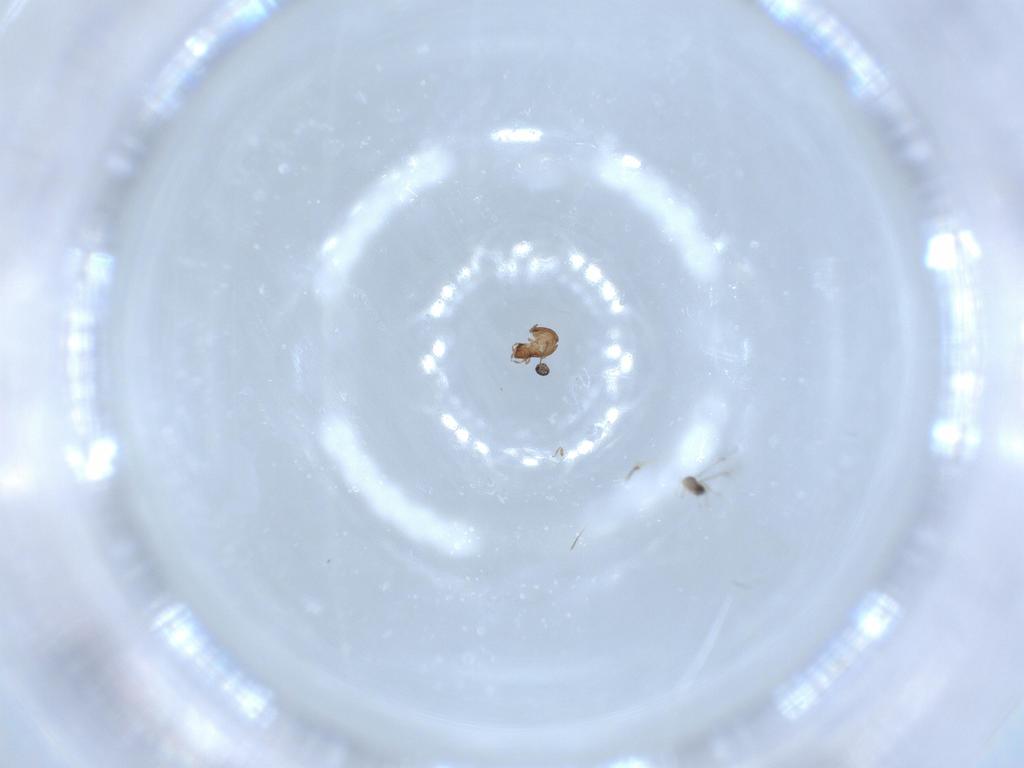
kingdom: Animalia
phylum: Arthropoda
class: Insecta
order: Hymenoptera
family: Mymaridae
